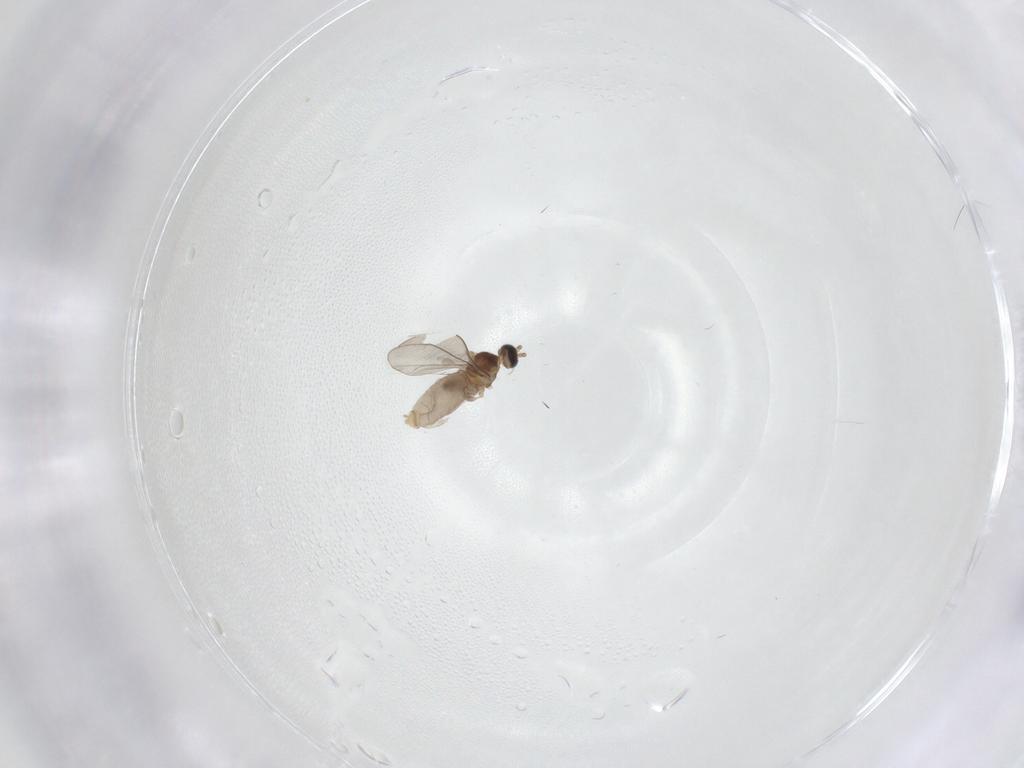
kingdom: Animalia
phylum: Arthropoda
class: Insecta
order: Diptera
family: Cecidomyiidae
